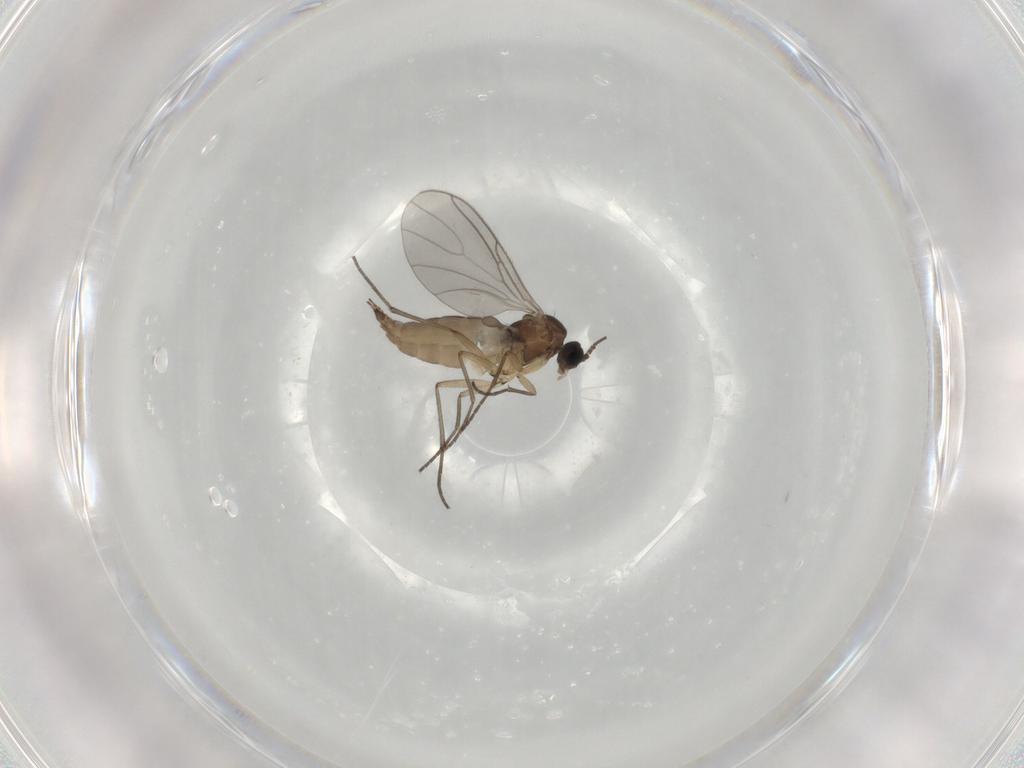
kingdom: Animalia
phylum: Arthropoda
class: Insecta
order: Diptera
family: Sciaridae
